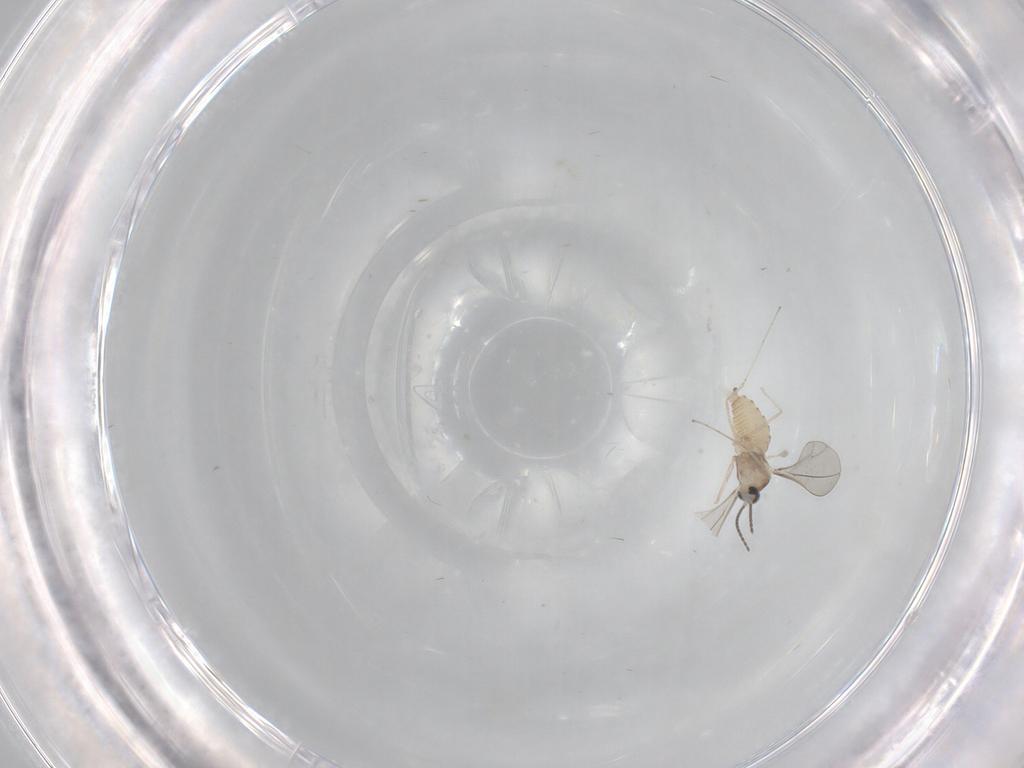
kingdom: Animalia
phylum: Arthropoda
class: Insecta
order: Diptera
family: Cecidomyiidae
